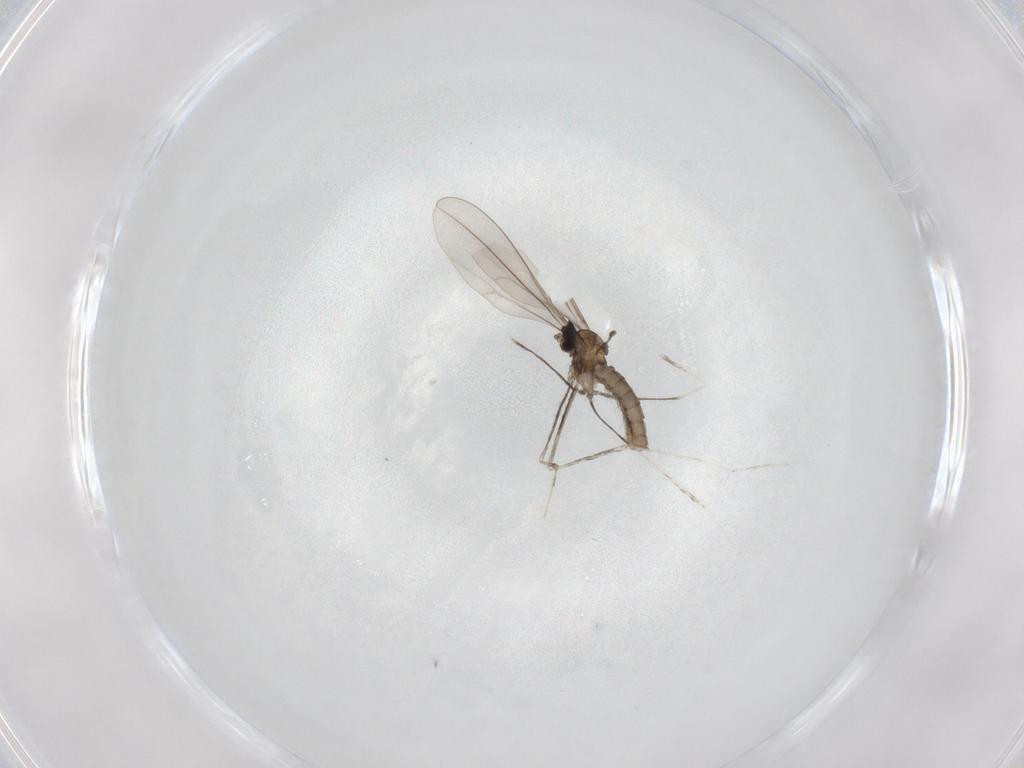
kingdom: Animalia
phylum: Arthropoda
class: Insecta
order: Diptera
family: Cecidomyiidae
